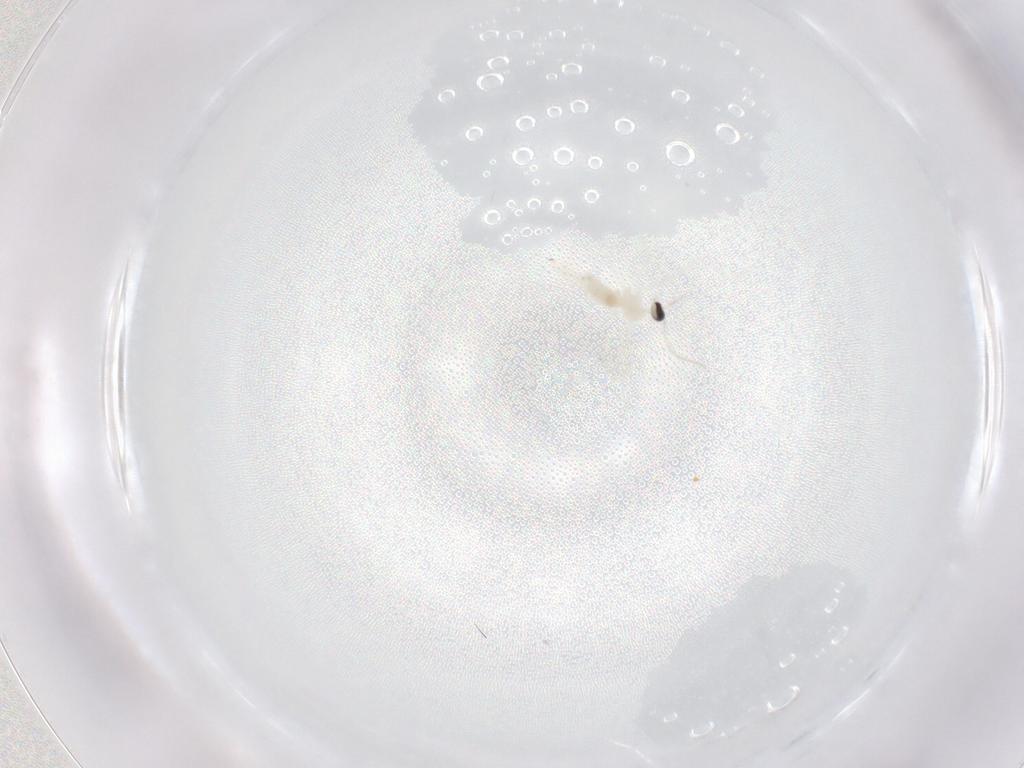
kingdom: Animalia
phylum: Arthropoda
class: Insecta
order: Diptera
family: Cecidomyiidae
